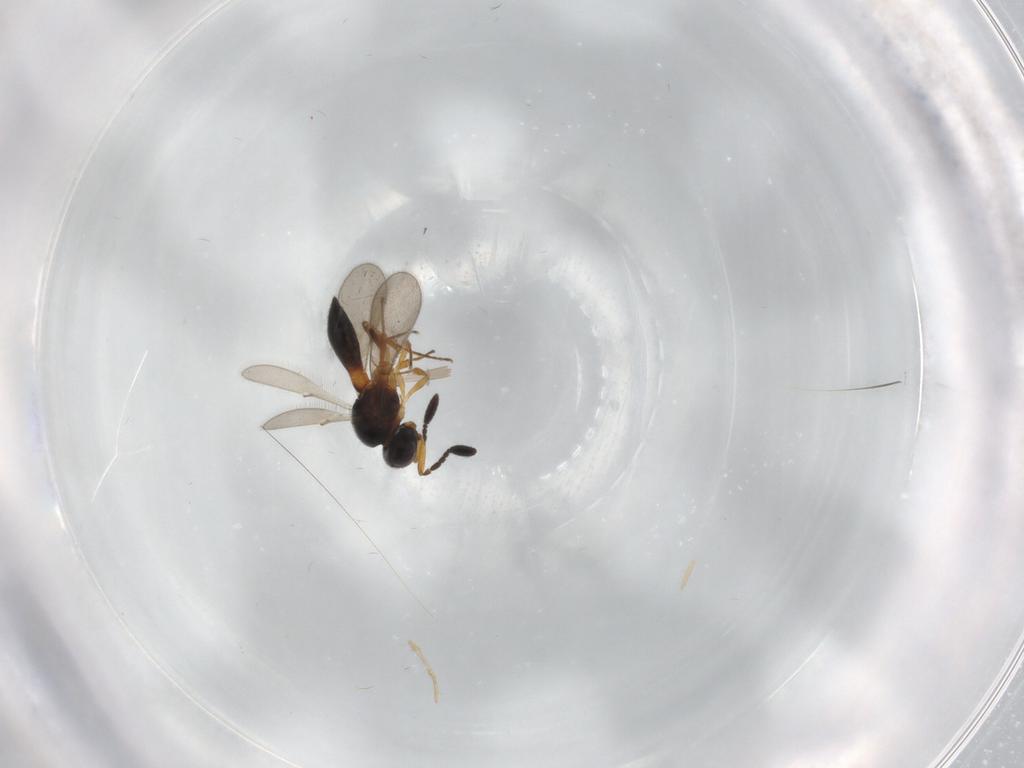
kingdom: Animalia
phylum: Arthropoda
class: Insecta
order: Hymenoptera
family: Scelionidae
